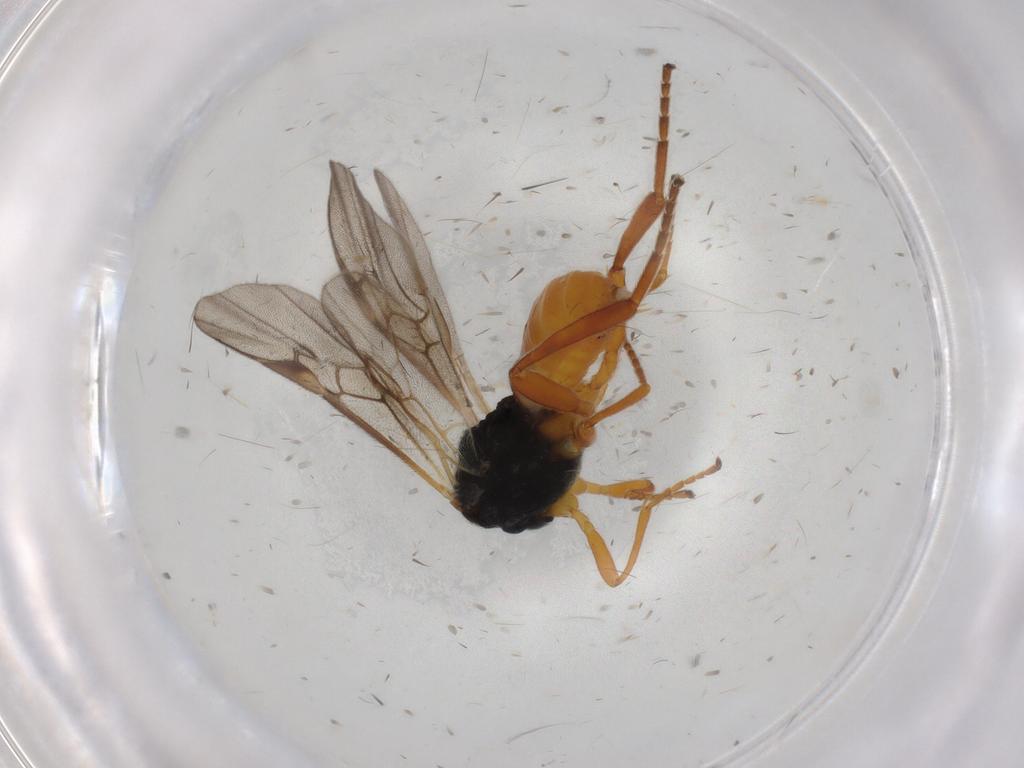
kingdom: Animalia
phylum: Arthropoda
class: Insecta
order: Hymenoptera
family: Braconidae
